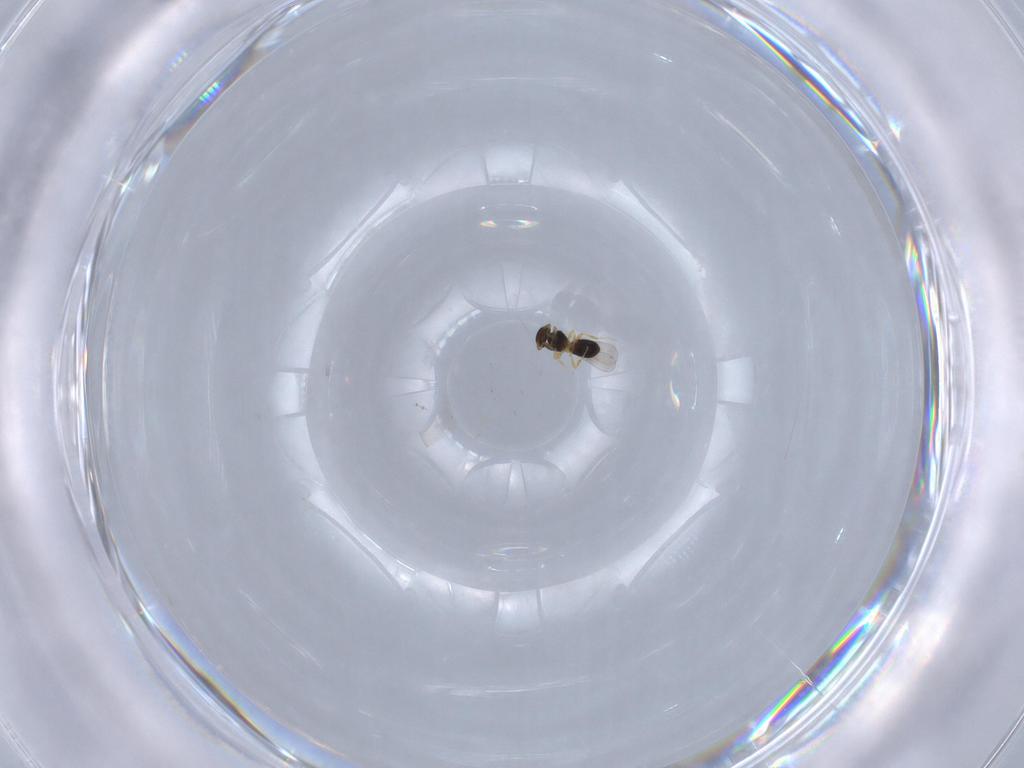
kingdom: Animalia
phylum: Arthropoda
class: Insecta
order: Hymenoptera
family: Platygastridae
